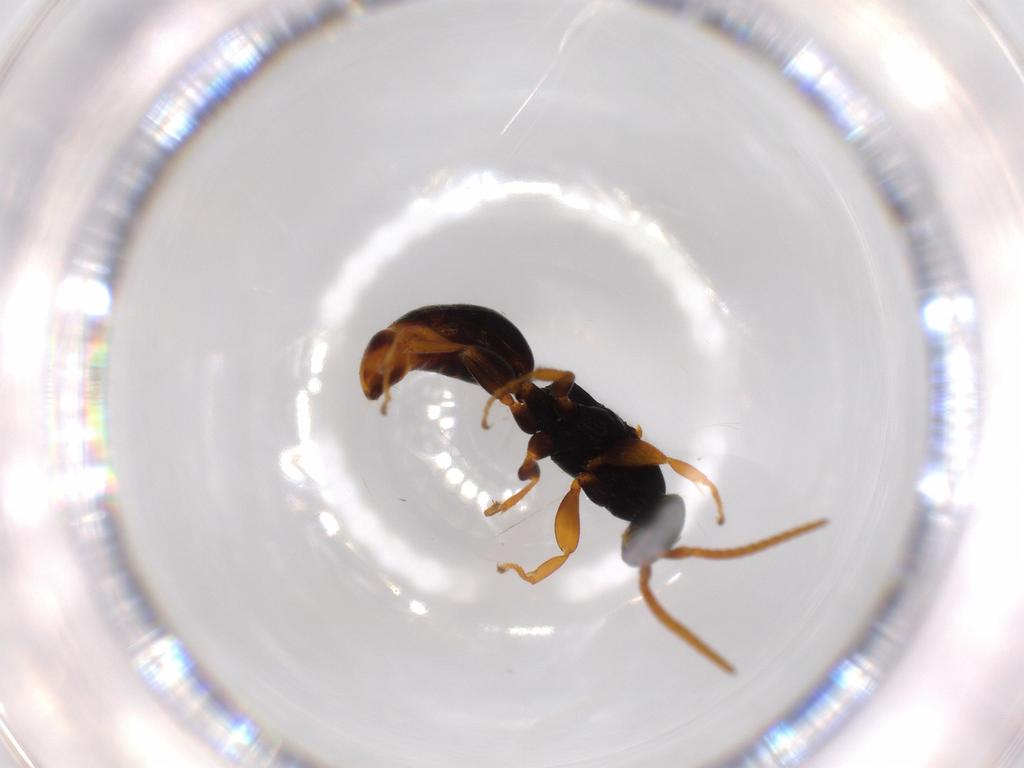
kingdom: Animalia
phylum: Arthropoda
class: Insecta
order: Hymenoptera
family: Bethylidae
